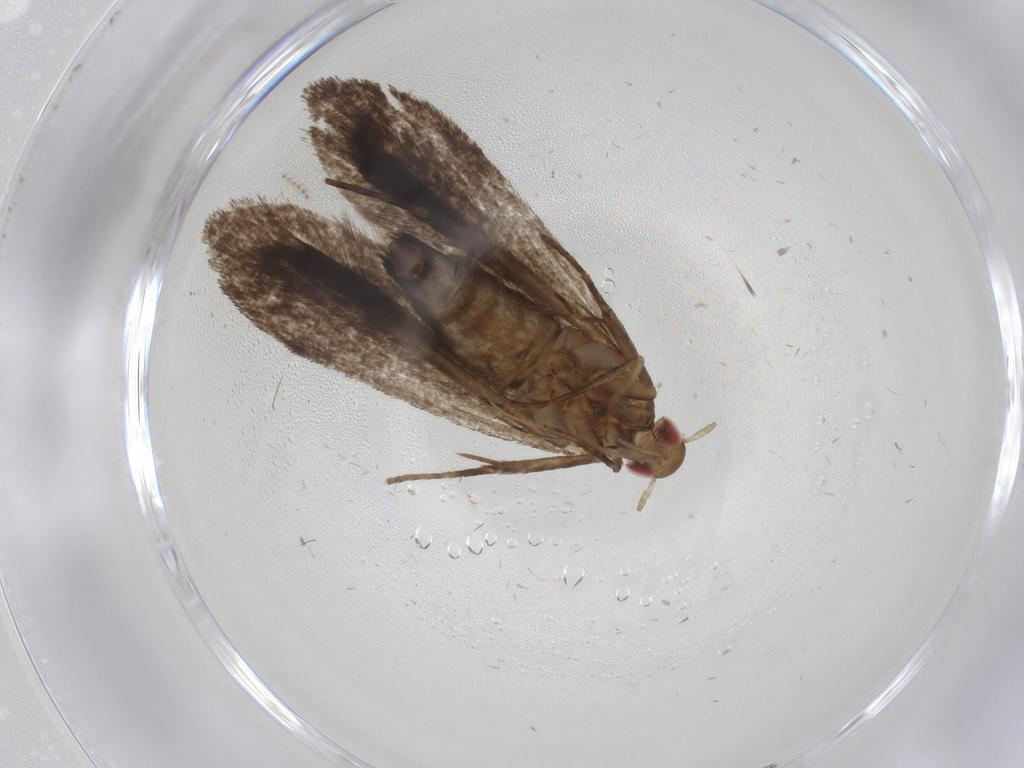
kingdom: Animalia
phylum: Arthropoda
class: Insecta
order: Lepidoptera
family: Gelechiidae
